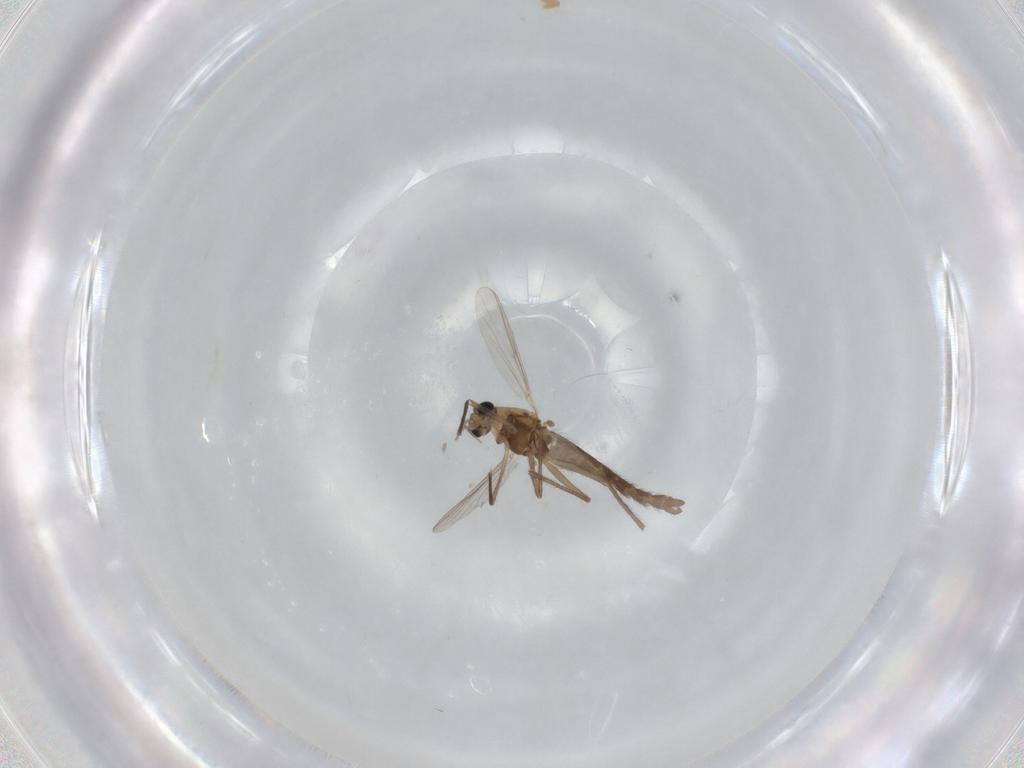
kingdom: Animalia
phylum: Arthropoda
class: Insecta
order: Diptera
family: Chironomidae
